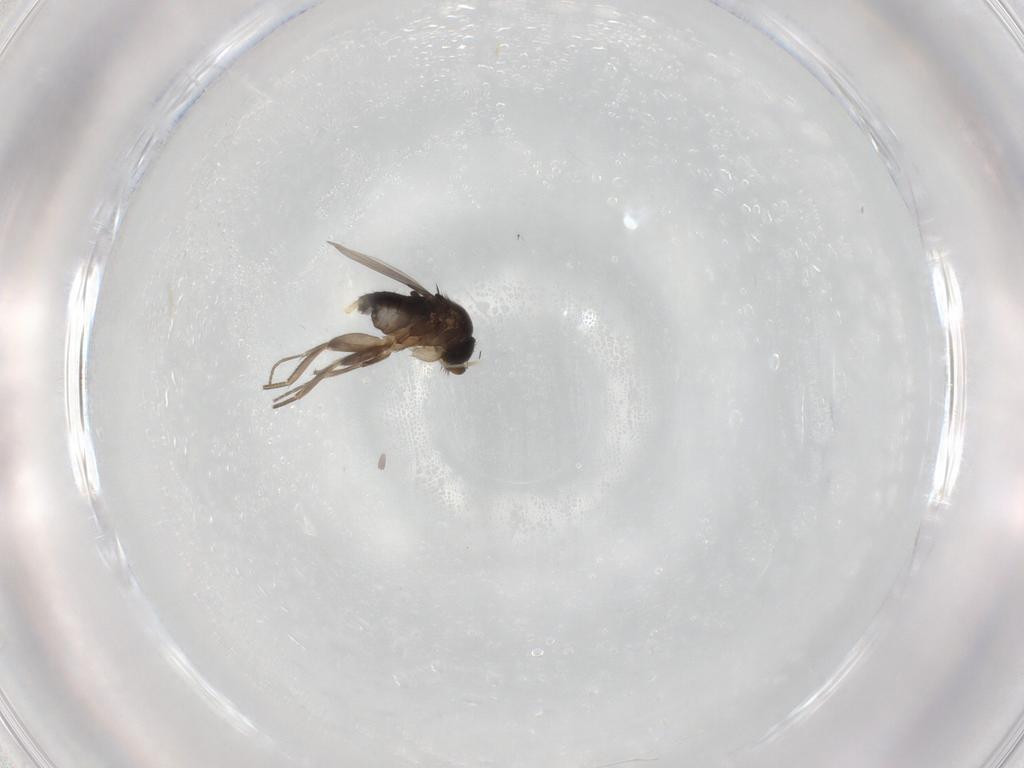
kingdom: Animalia
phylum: Arthropoda
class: Insecta
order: Diptera
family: Phoridae
